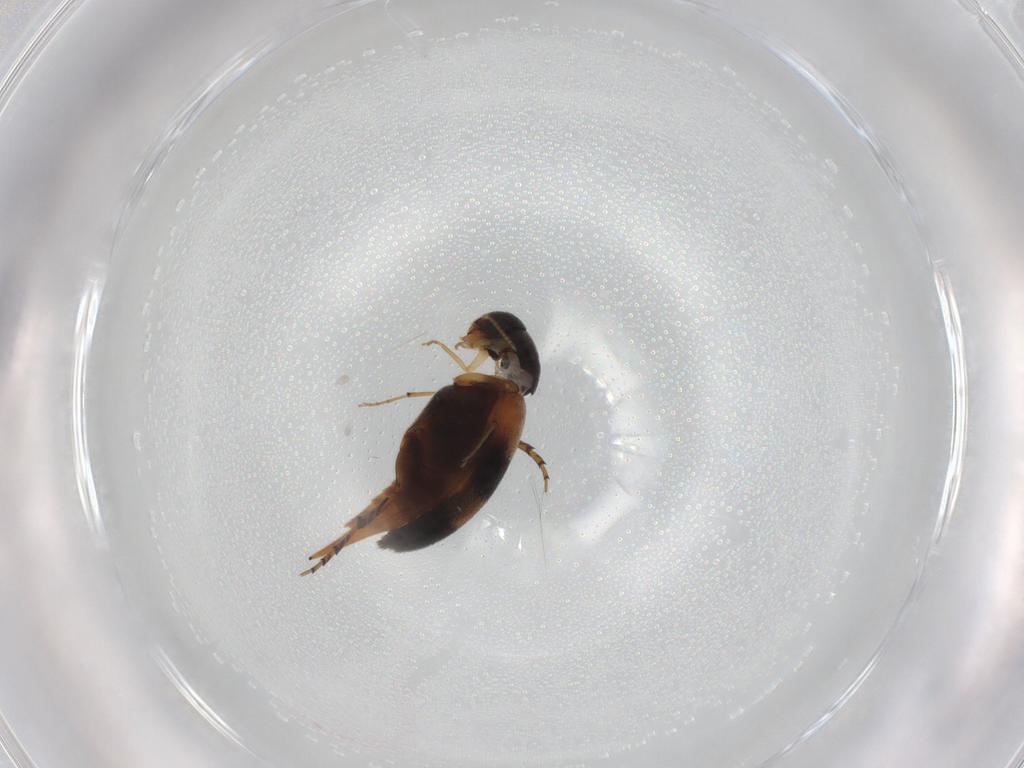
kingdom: Animalia
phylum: Arthropoda
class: Insecta
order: Coleoptera
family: Mordellidae
